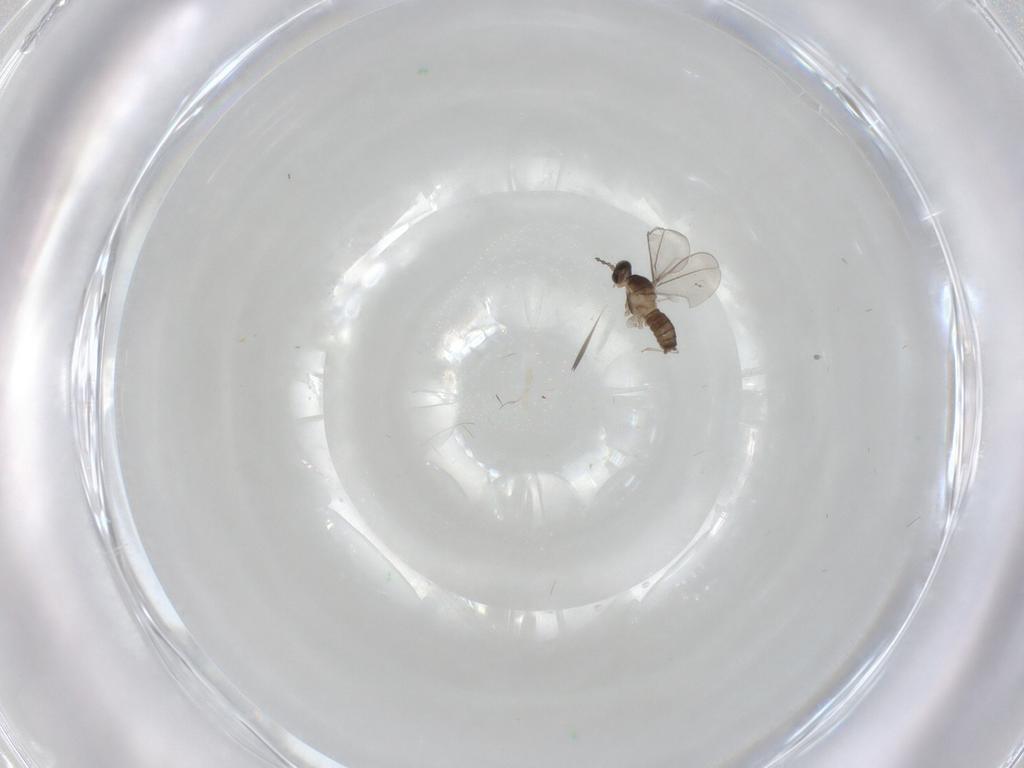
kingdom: Animalia
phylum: Arthropoda
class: Insecta
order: Diptera
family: Cecidomyiidae
